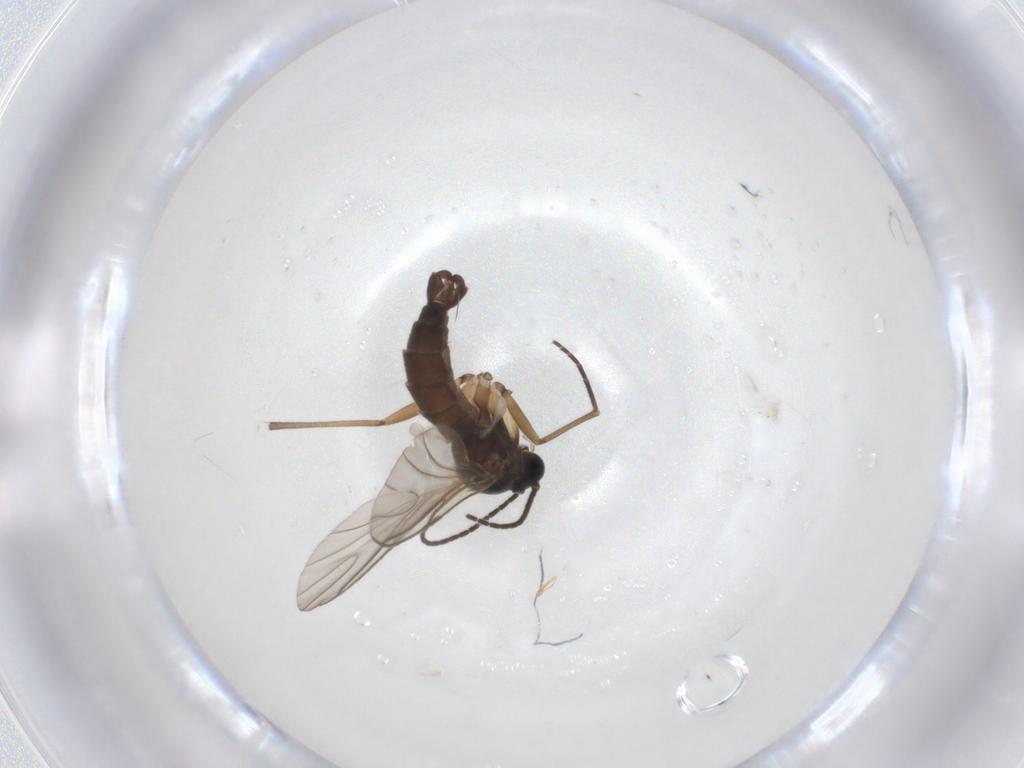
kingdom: Animalia
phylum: Arthropoda
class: Insecta
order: Diptera
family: Sciaridae
